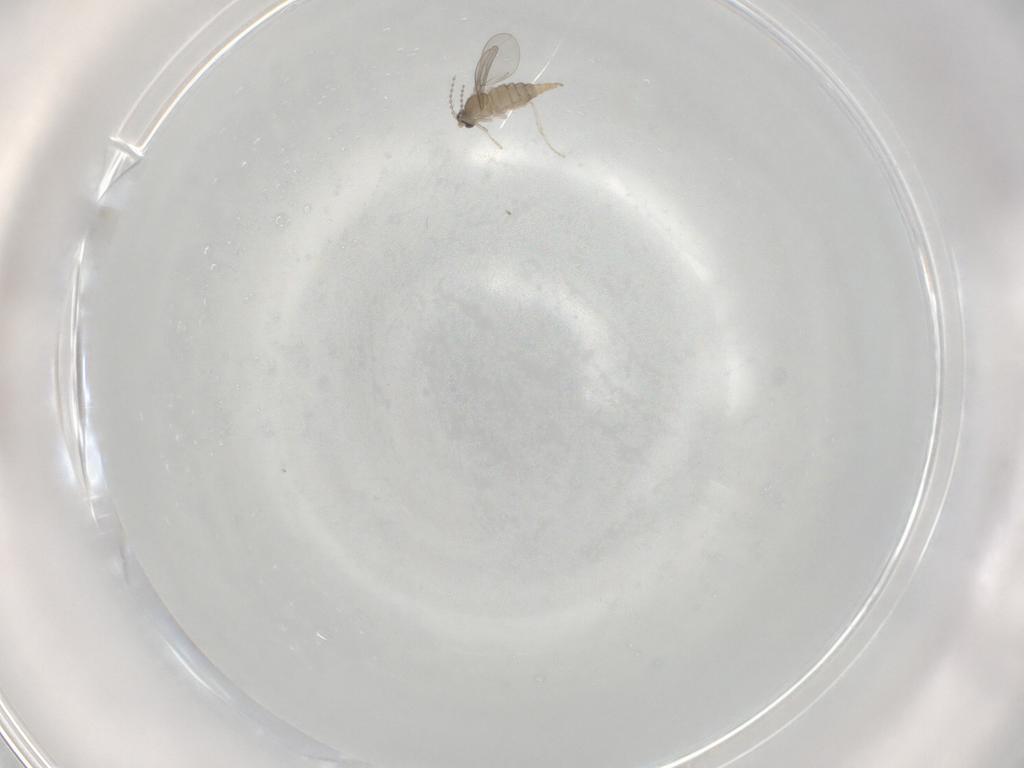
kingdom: Animalia
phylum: Arthropoda
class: Insecta
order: Diptera
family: Cecidomyiidae
